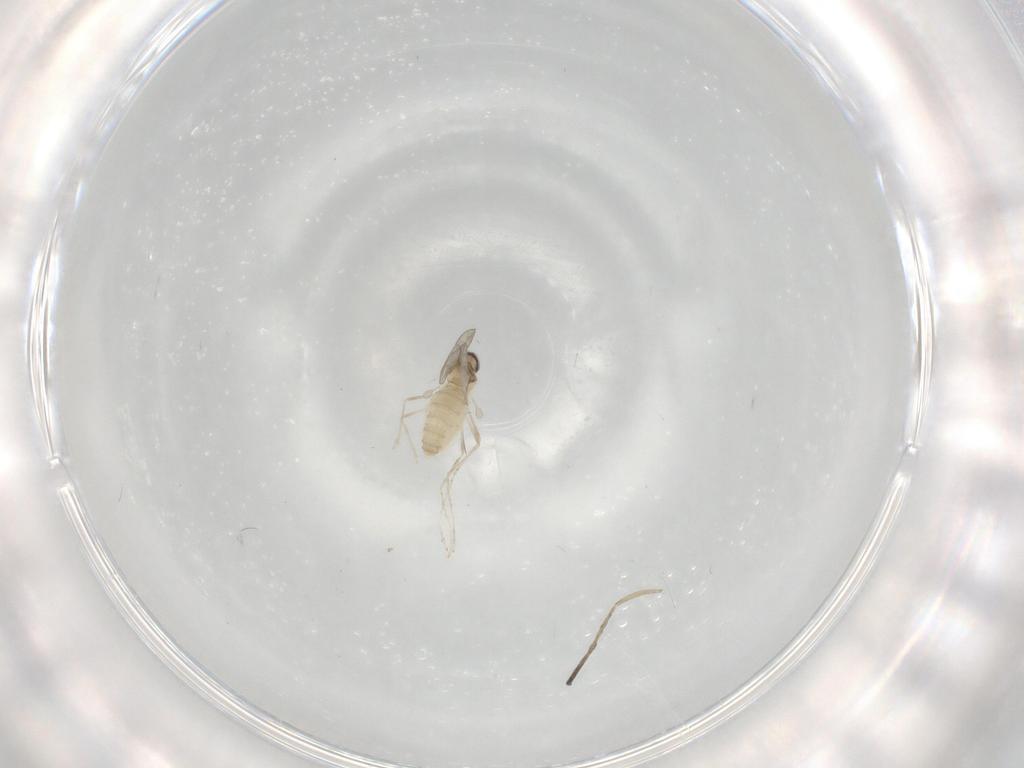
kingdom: Animalia
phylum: Arthropoda
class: Insecta
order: Diptera
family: Cecidomyiidae
